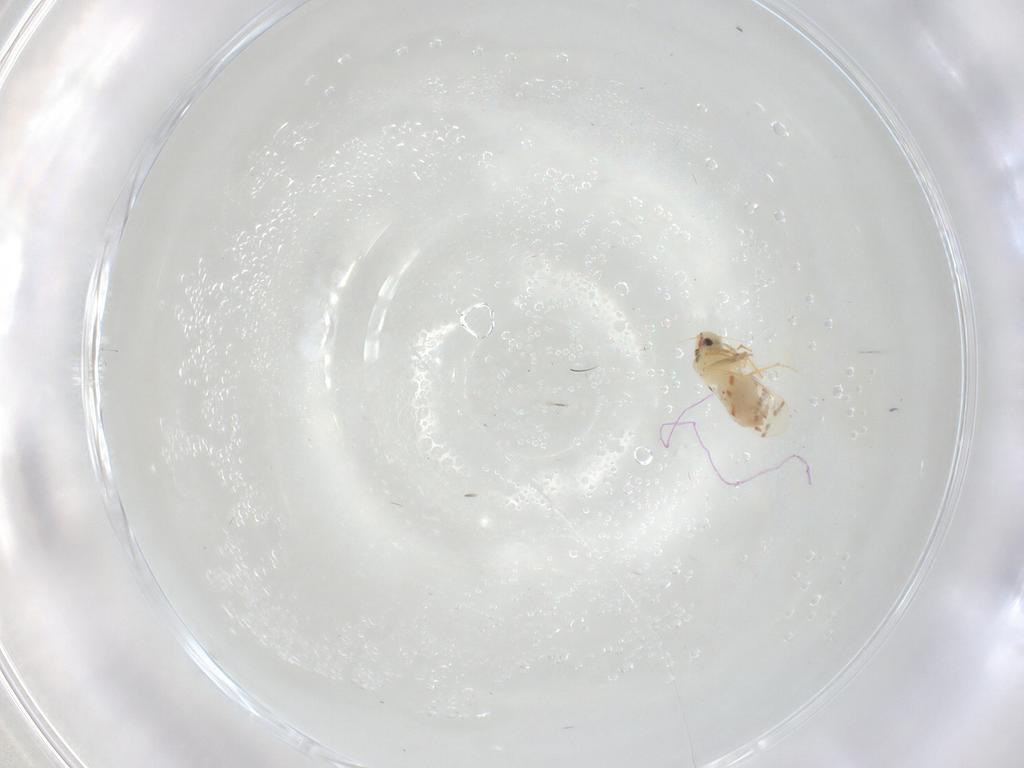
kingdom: Animalia
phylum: Arthropoda
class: Insecta
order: Hemiptera
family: Aleyrodidae
